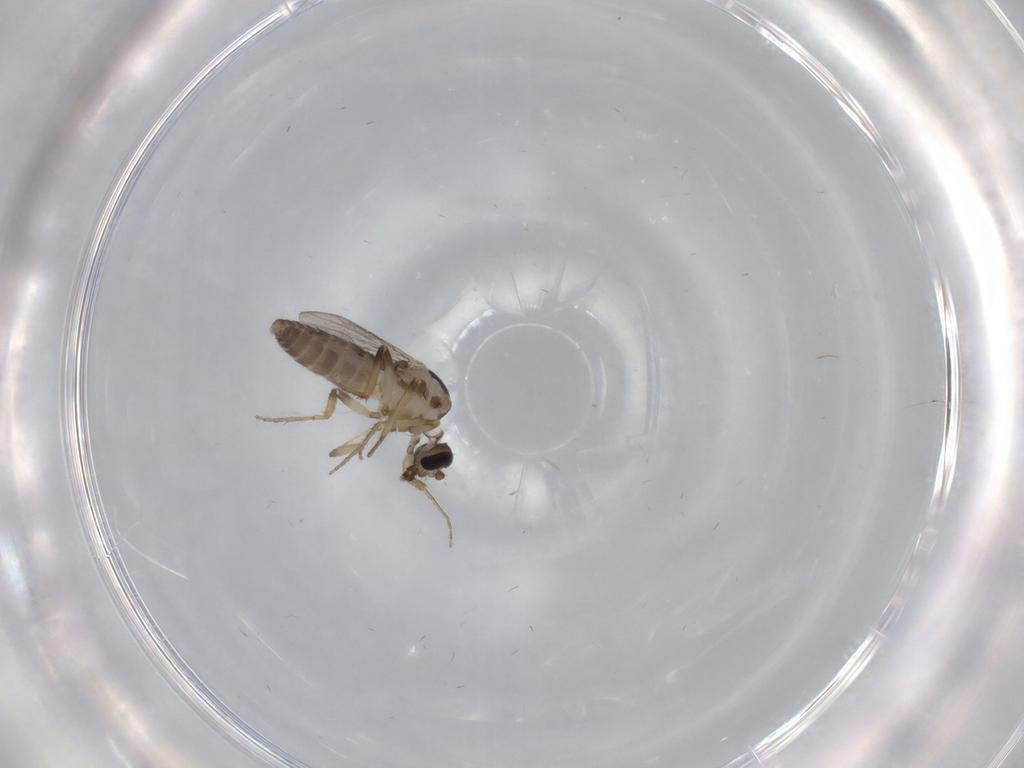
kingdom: Animalia
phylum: Arthropoda
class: Insecta
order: Diptera
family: Ceratopogonidae
